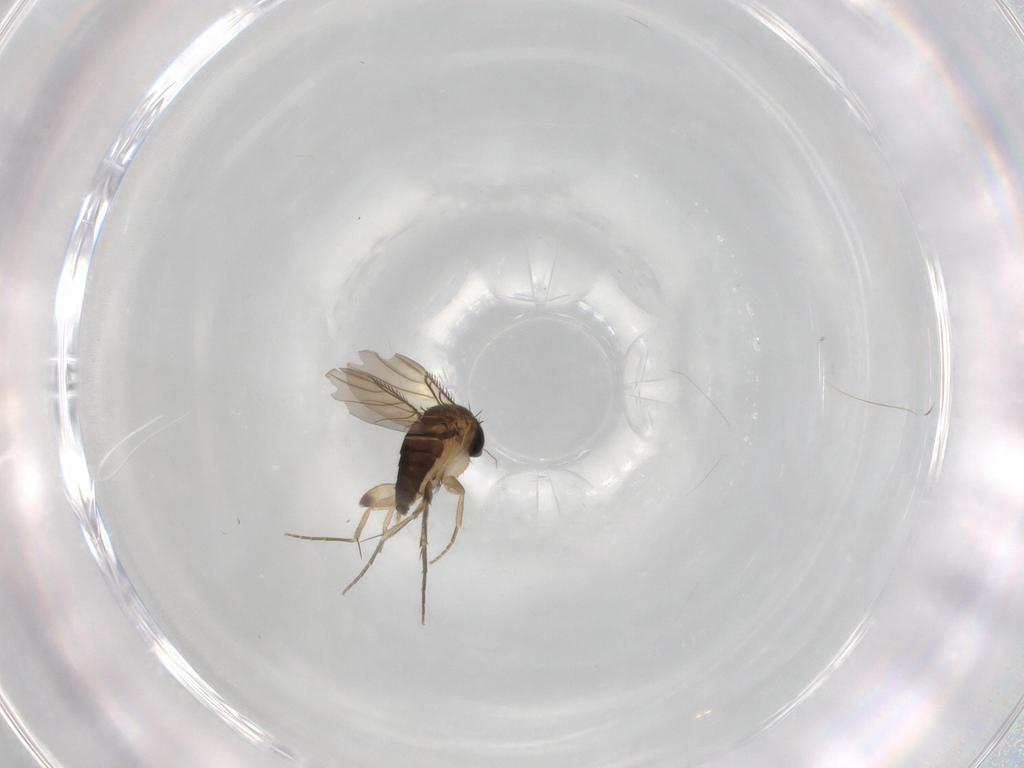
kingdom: Animalia
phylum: Arthropoda
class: Insecta
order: Diptera
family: Phoridae
